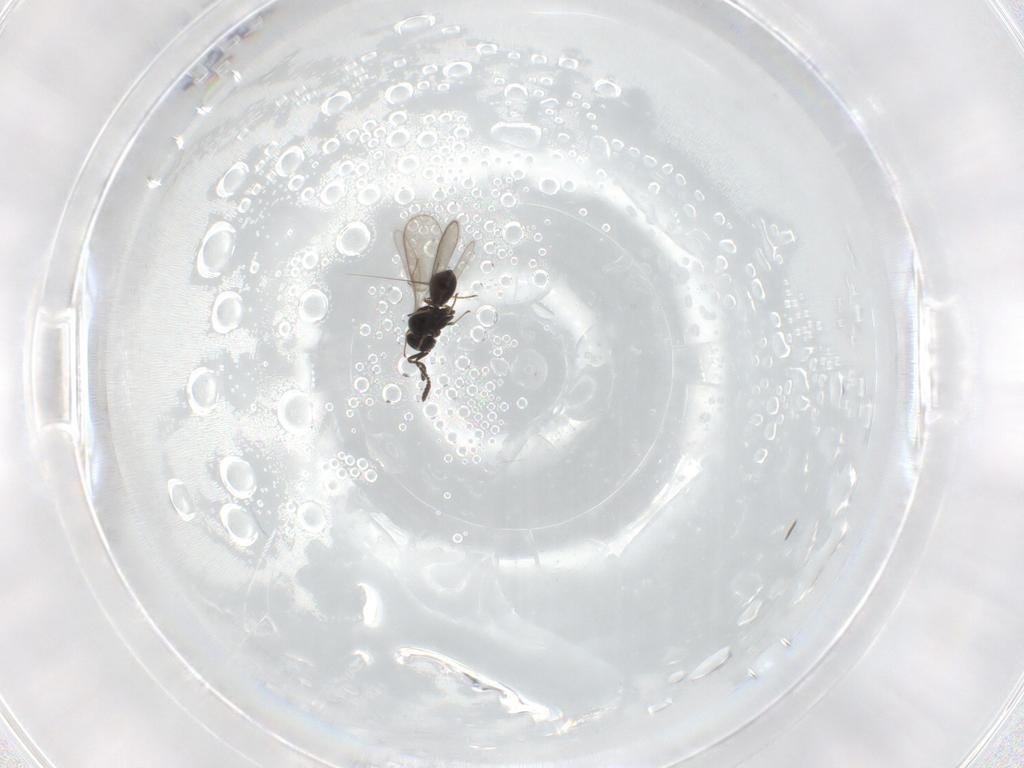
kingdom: Animalia
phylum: Arthropoda
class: Insecta
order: Hymenoptera
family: Scelionidae
